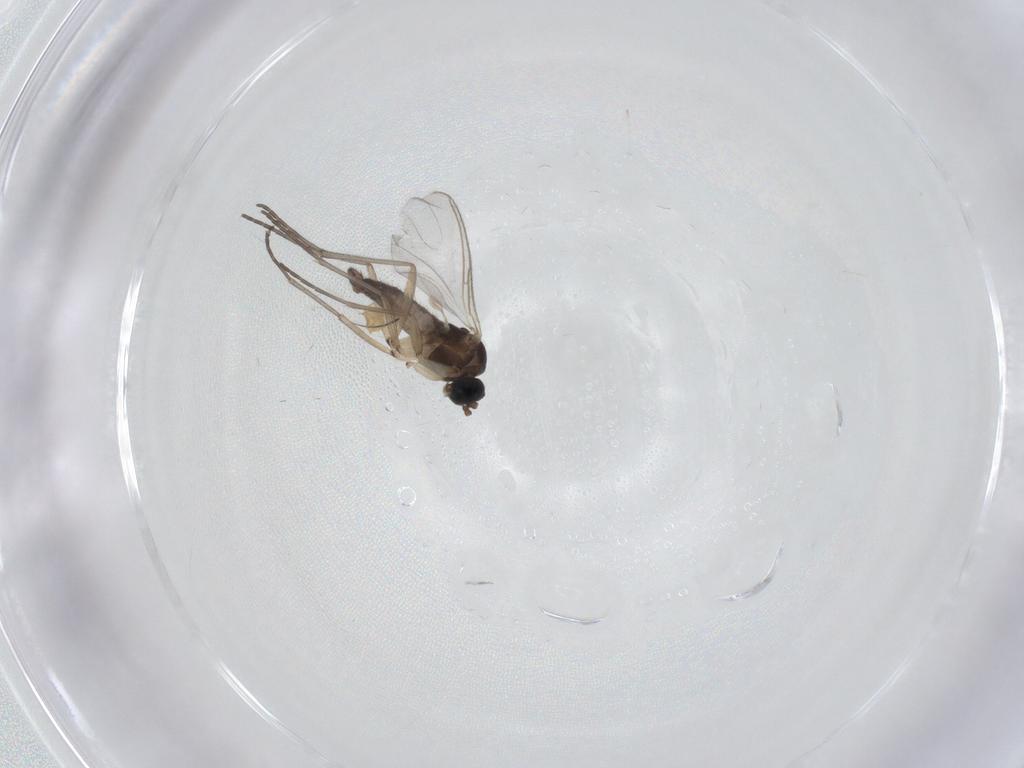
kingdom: Animalia
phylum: Arthropoda
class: Insecta
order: Diptera
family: Sciaridae
